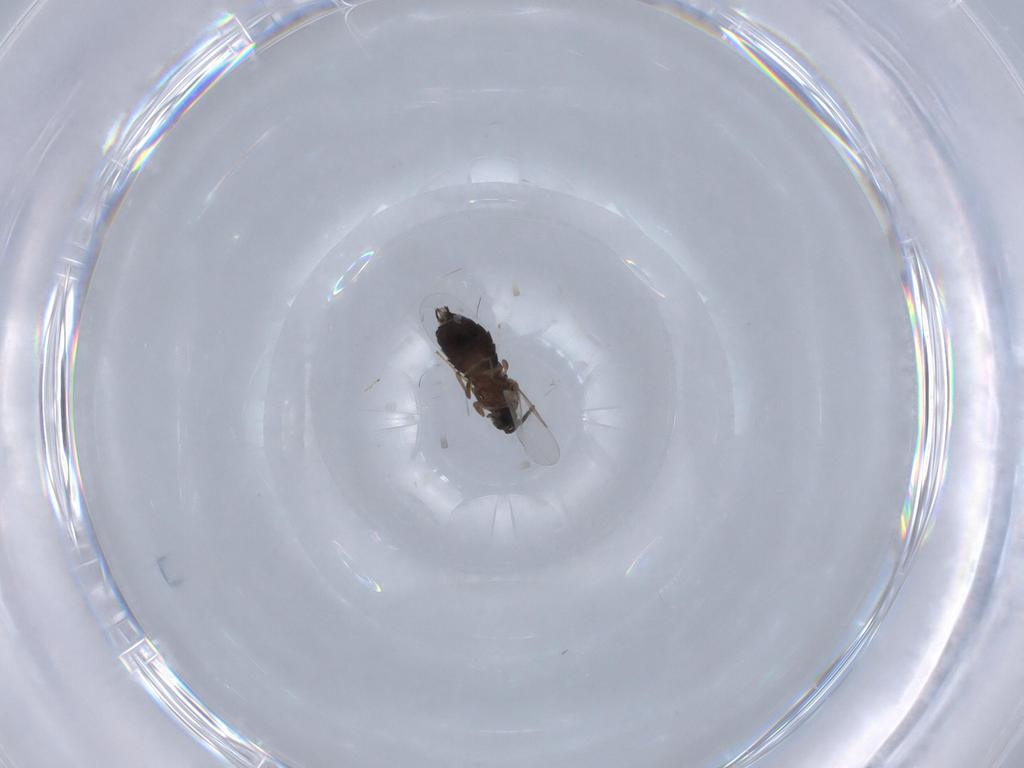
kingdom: Animalia
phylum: Arthropoda
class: Insecta
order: Diptera
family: Scatopsidae
